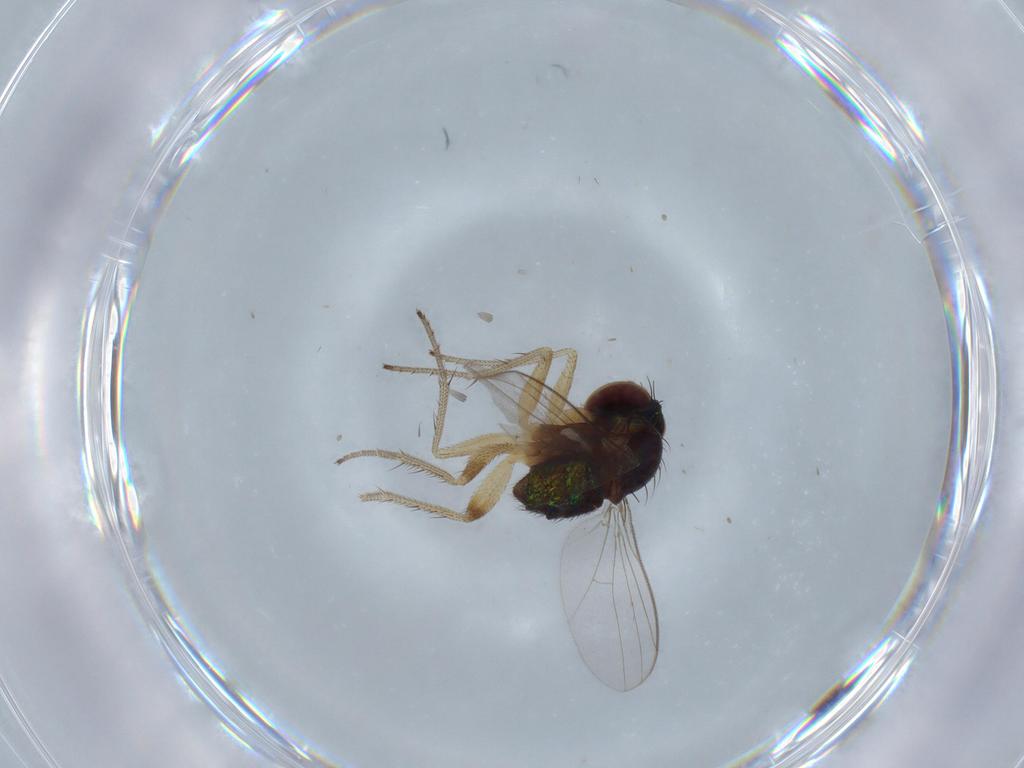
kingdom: Animalia
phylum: Arthropoda
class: Insecta
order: Diptera
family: Dolichopodidae
